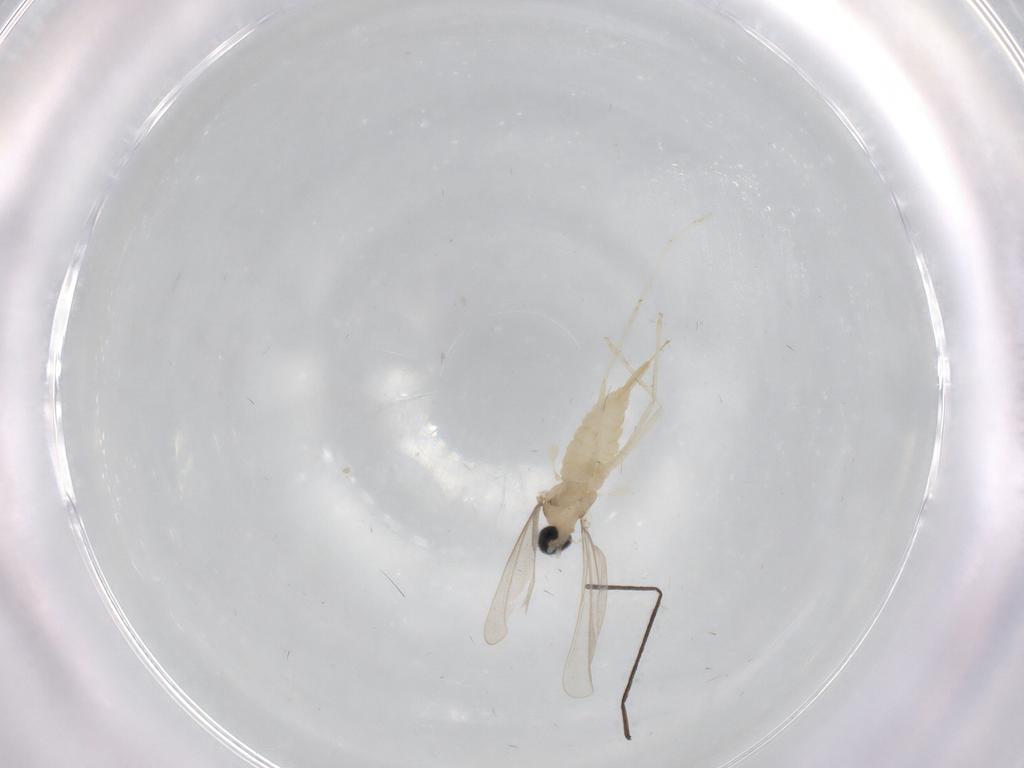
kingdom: Animalia
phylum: Arthropoda
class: Insecta
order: Diptera
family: Cecidomyiidae
